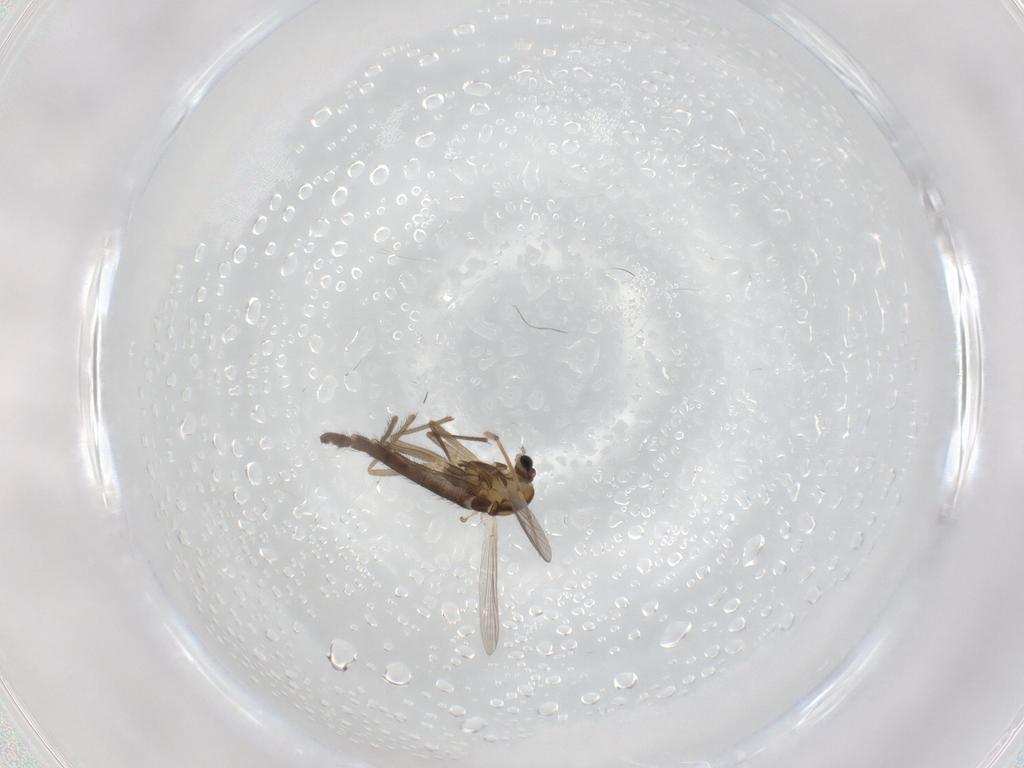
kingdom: Animalia
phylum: Arthropoda
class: Insecta
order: Diptera
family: Chironomidae
